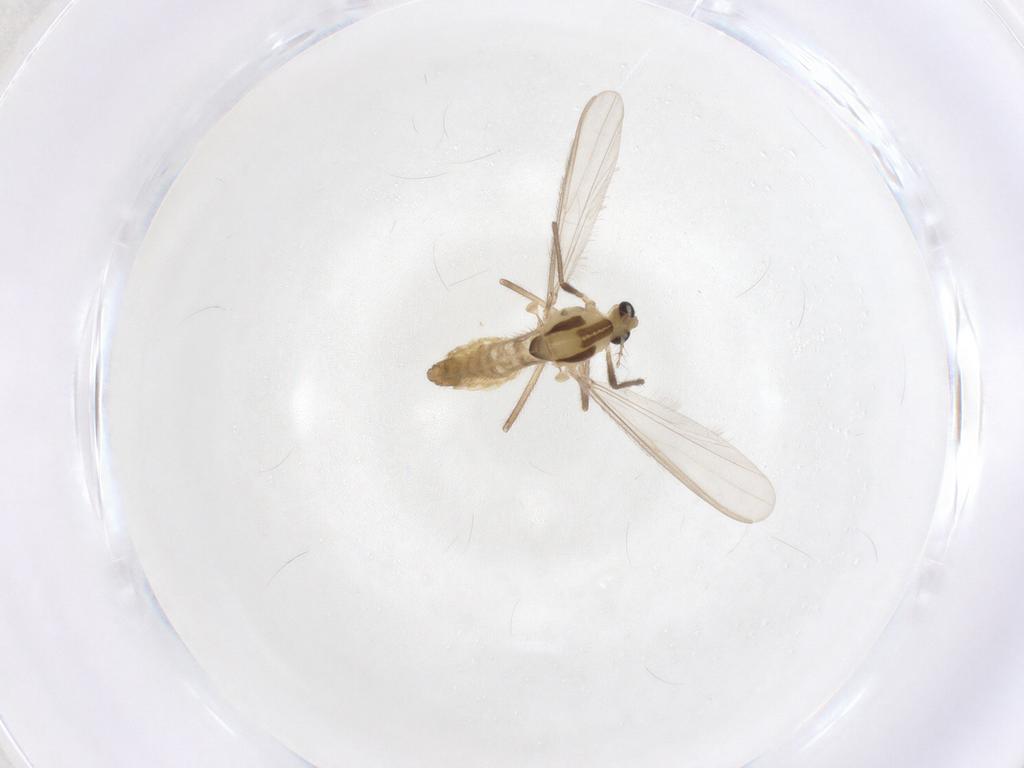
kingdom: Animalia
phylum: Arthropoda
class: Insecta
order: Diptera
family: Chironomidae
